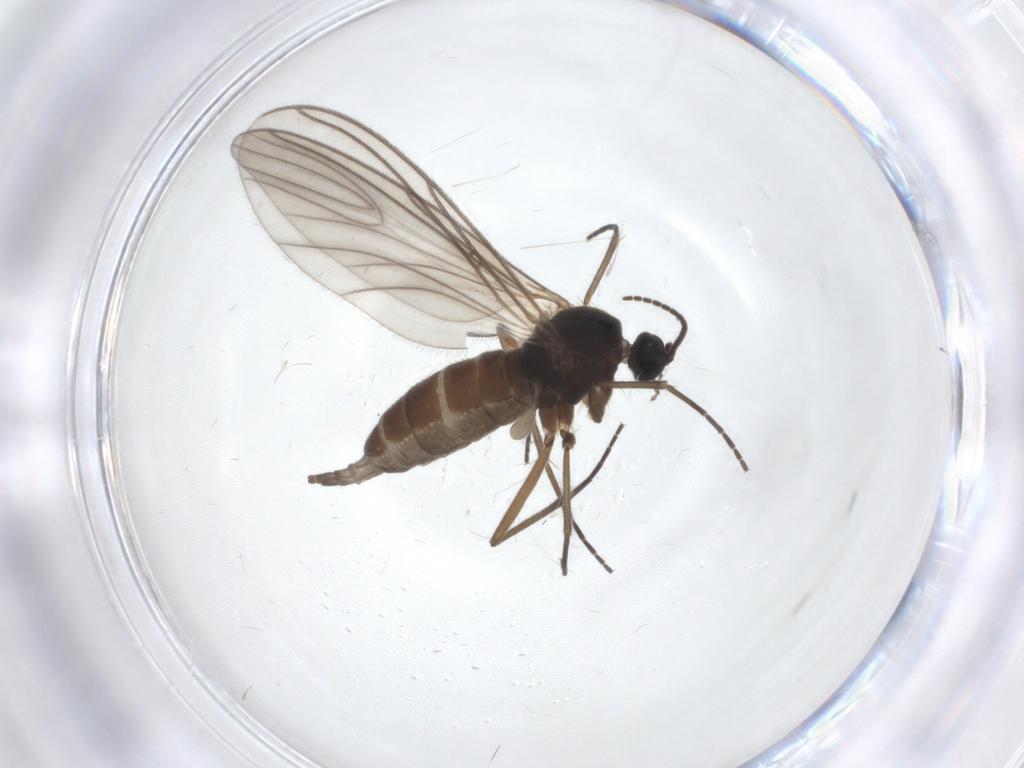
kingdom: Animalia
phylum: Arthropoda
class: Insecta
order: Diptera
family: Sciaridae
